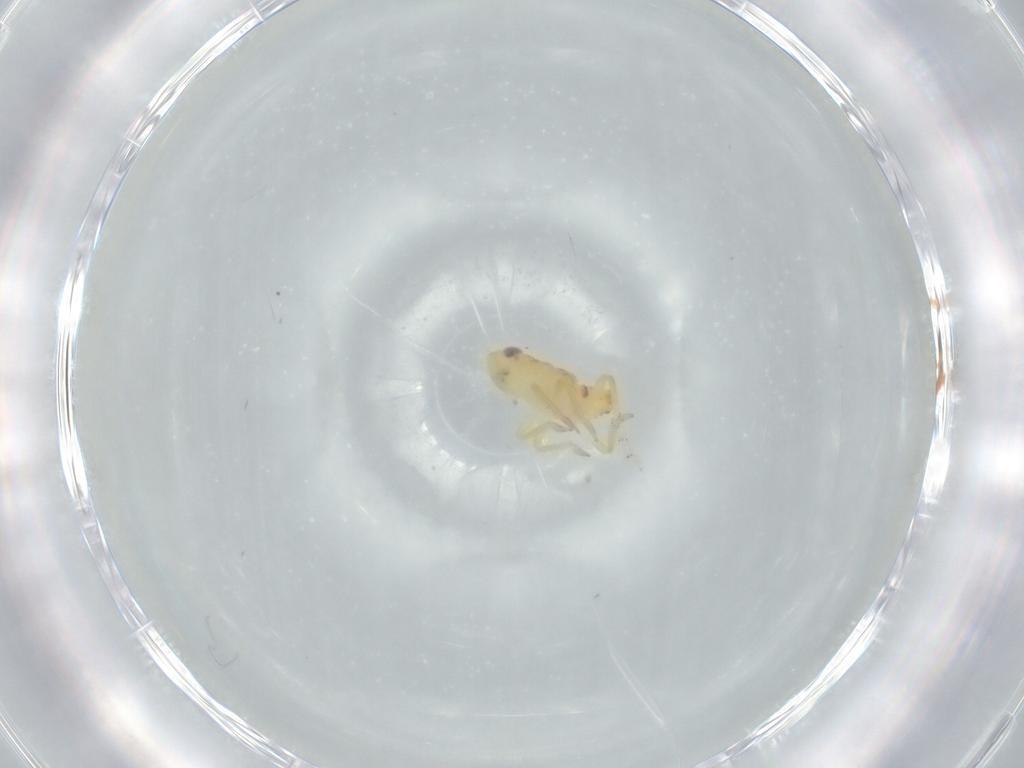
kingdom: Animalia
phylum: Arthropoda
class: Insecta
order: Hemiptera
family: Tropiduchidae
